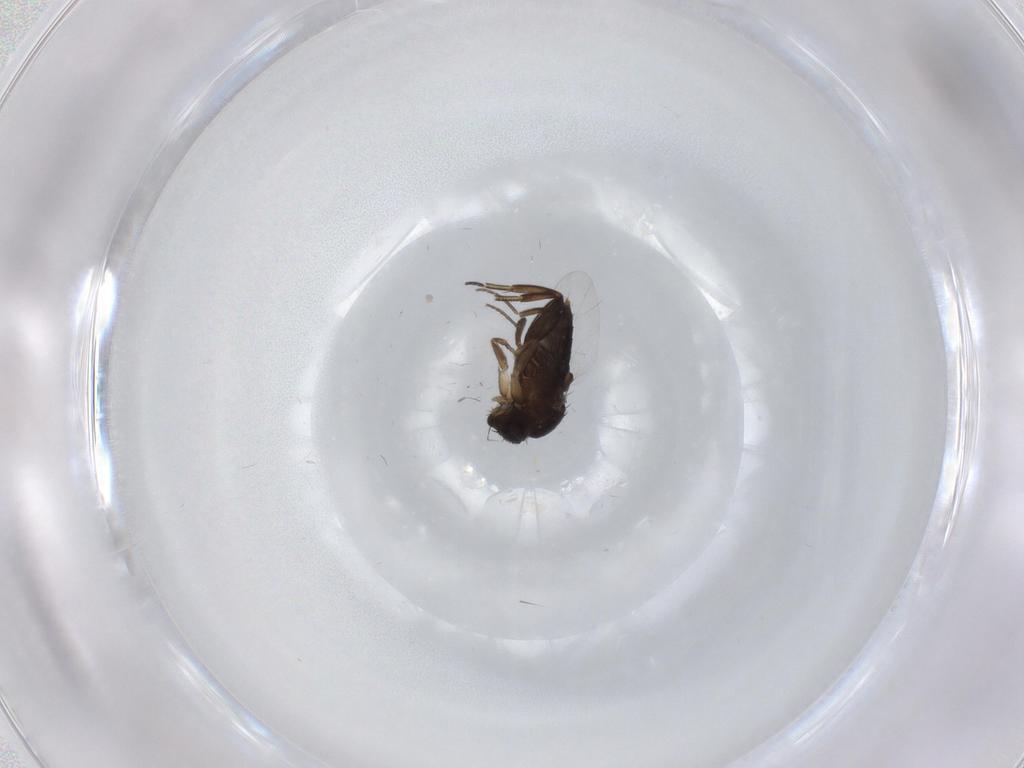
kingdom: Animalia
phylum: Arthropoda
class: Insecta
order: Diptera
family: Phoridae
